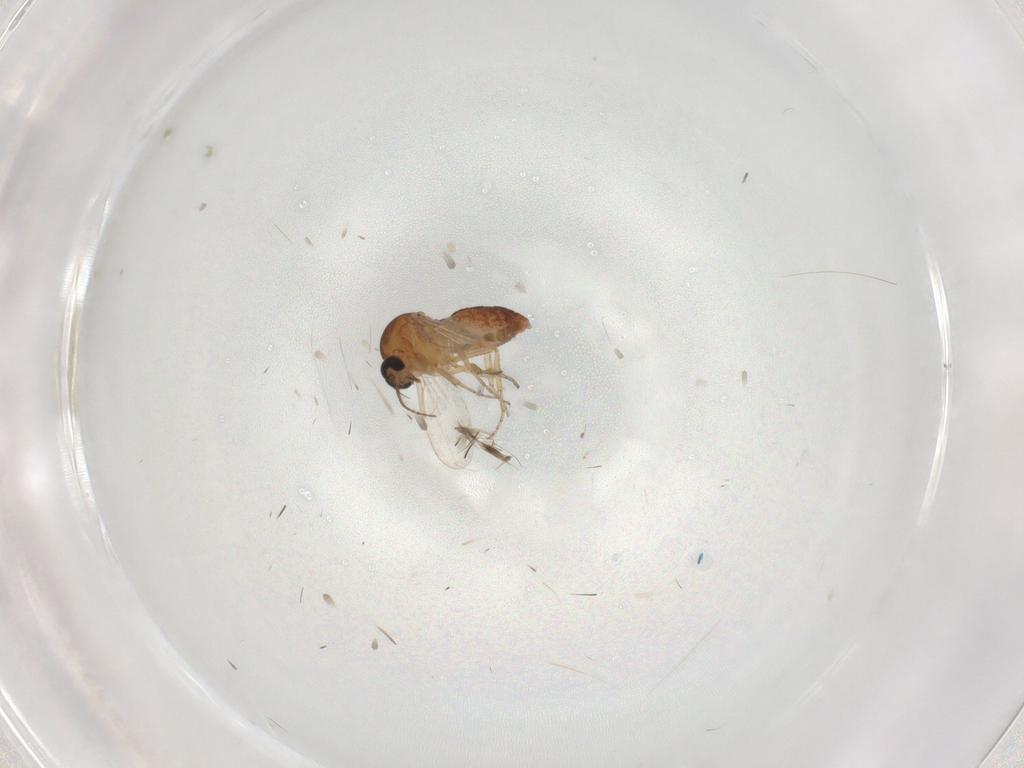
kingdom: Animalia
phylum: Arthropoda
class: Insecta
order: Diptera
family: Ceratopogonidae
